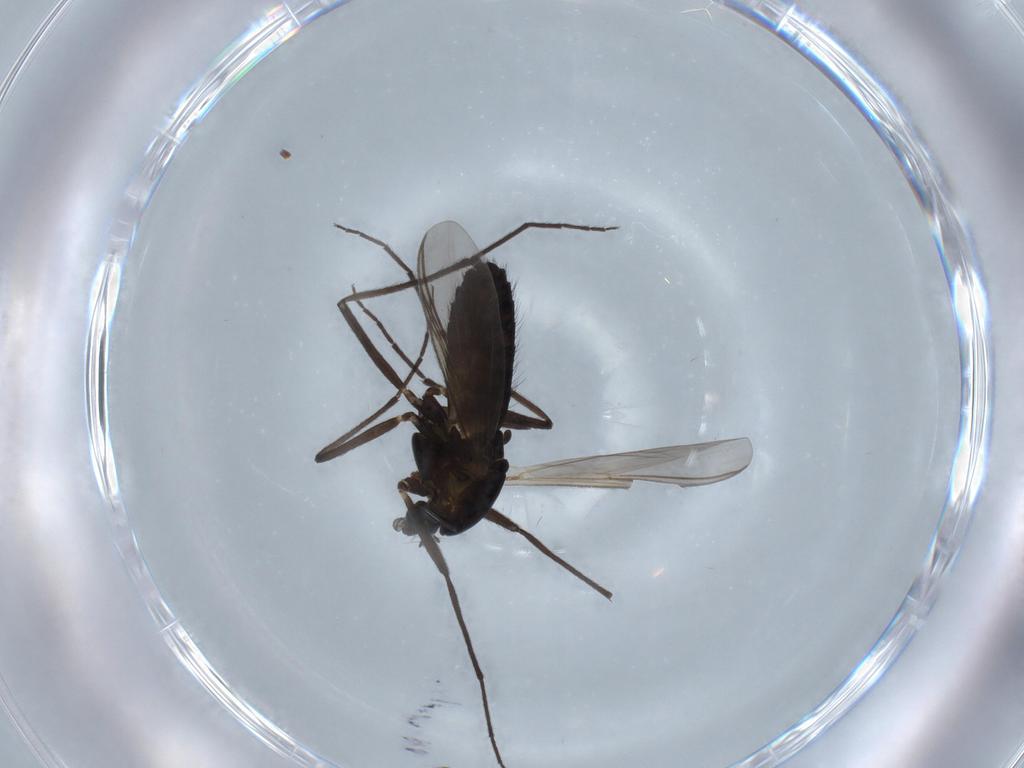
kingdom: Animalia
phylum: Arthropoda
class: Insecta
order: Diptera
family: Chironomidae
